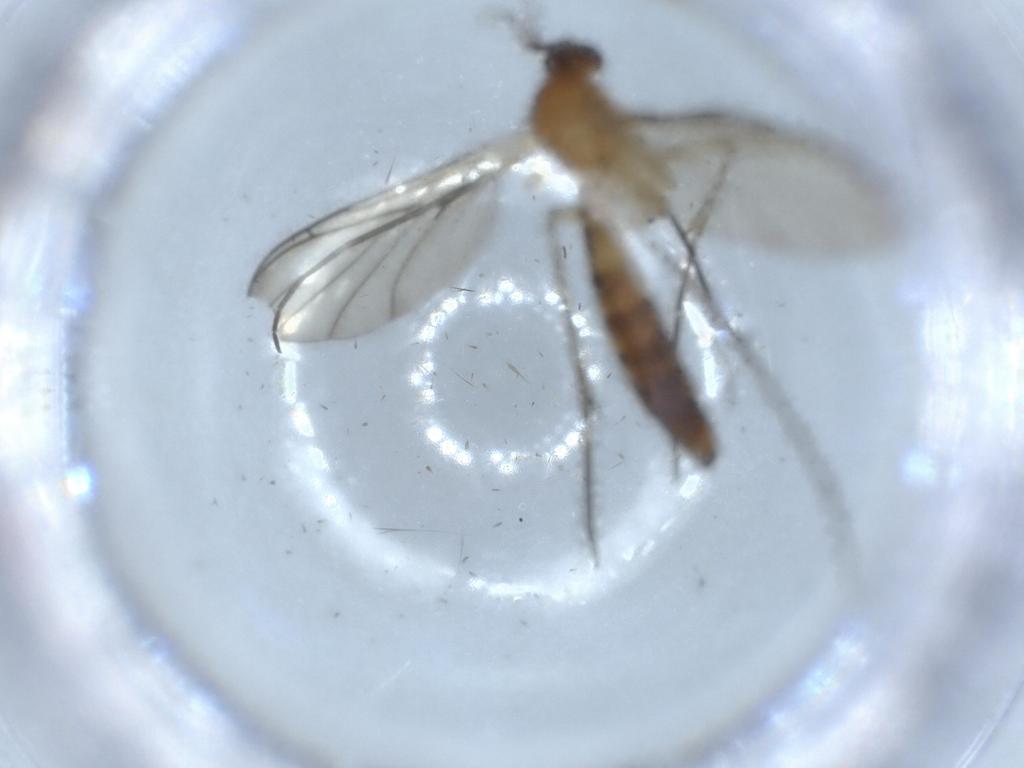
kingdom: Animalia
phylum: Arthropoda
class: Insecta
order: Diptera
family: Keroplatidae
